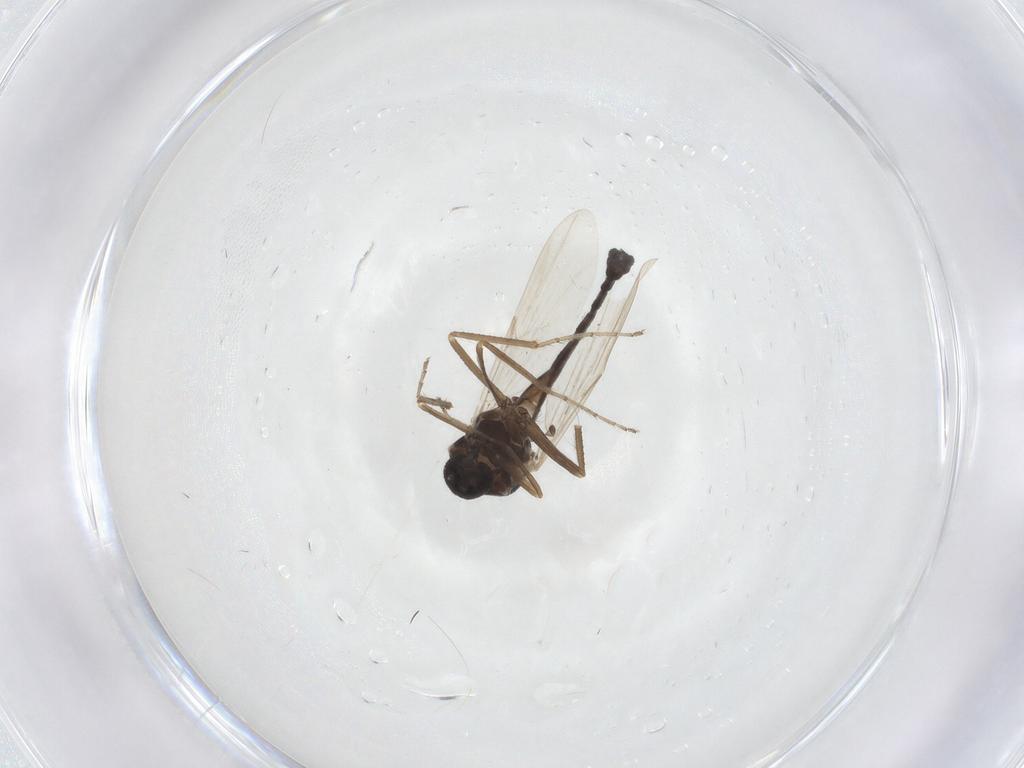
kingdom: Animalia
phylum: Arthropoda
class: Insecta
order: Diptera
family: Ceratopogonidae
